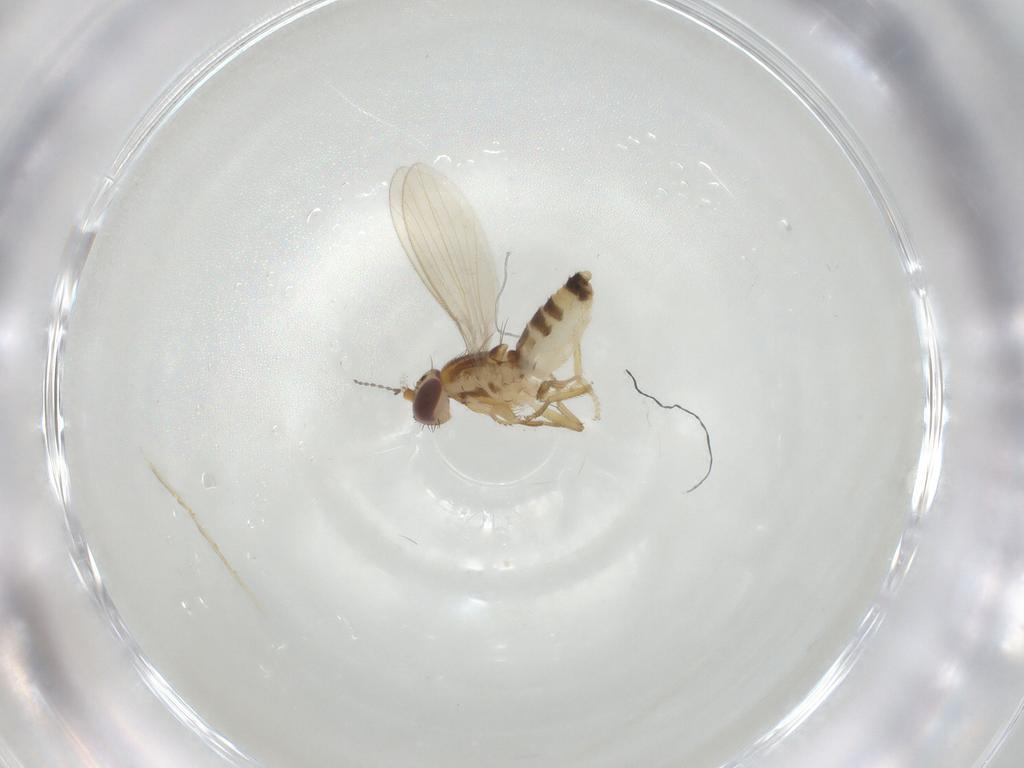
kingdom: Animalia
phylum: Arthropoda
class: Insecta
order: Diptera
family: Periscelididae
